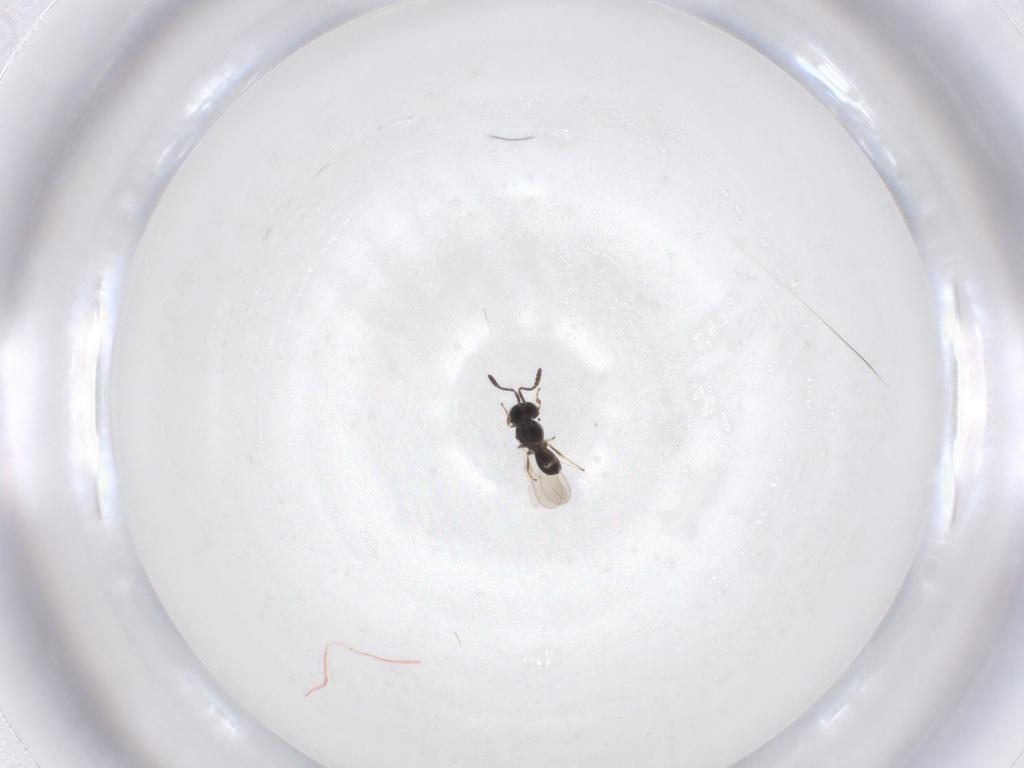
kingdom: Animalia
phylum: Arthropoda
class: Insecta
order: Hymenoptera
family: Scelionidae
